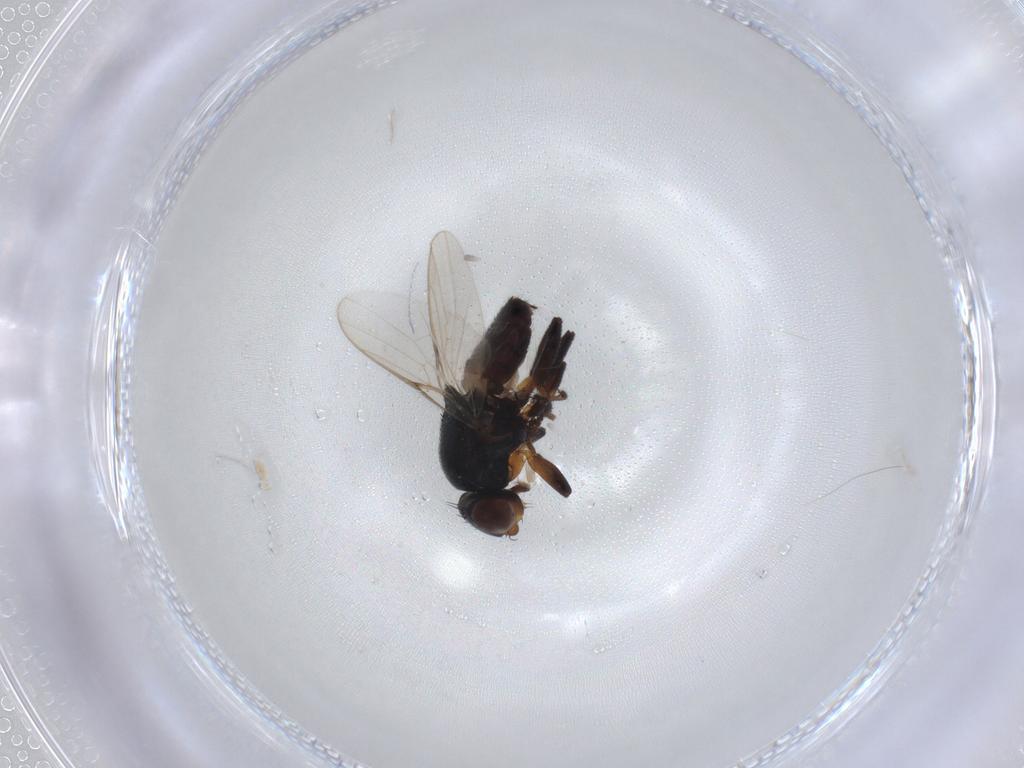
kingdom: Animalia
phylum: Arthropoda
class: Insecta
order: Diptera
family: Chloropidae
